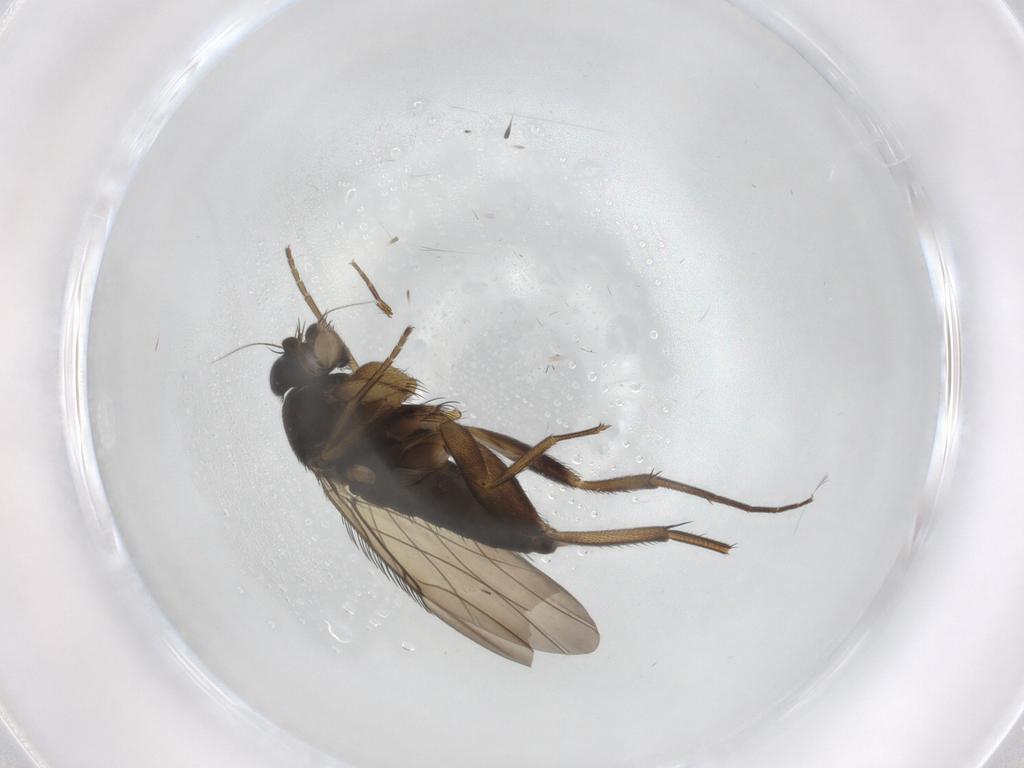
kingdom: Animalia
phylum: Arthropoda
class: Insecta
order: Diptera
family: Phoridae
